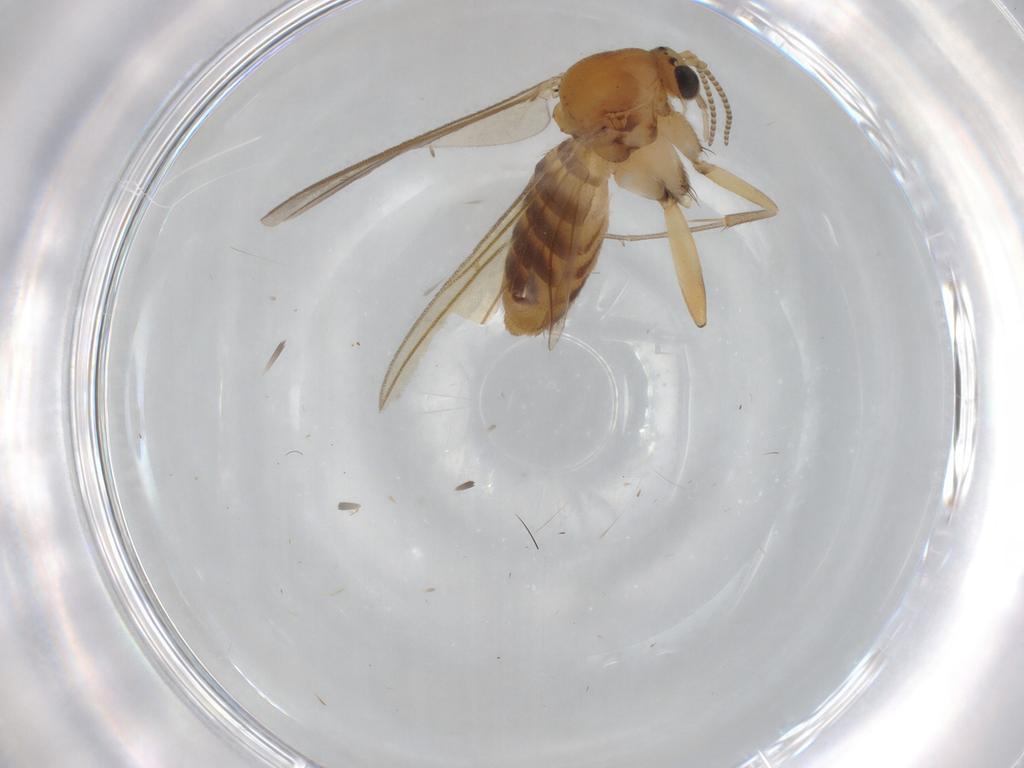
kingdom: Animalia
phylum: Arthropoda
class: Insecta
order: Diptera
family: Mycetophilidae
